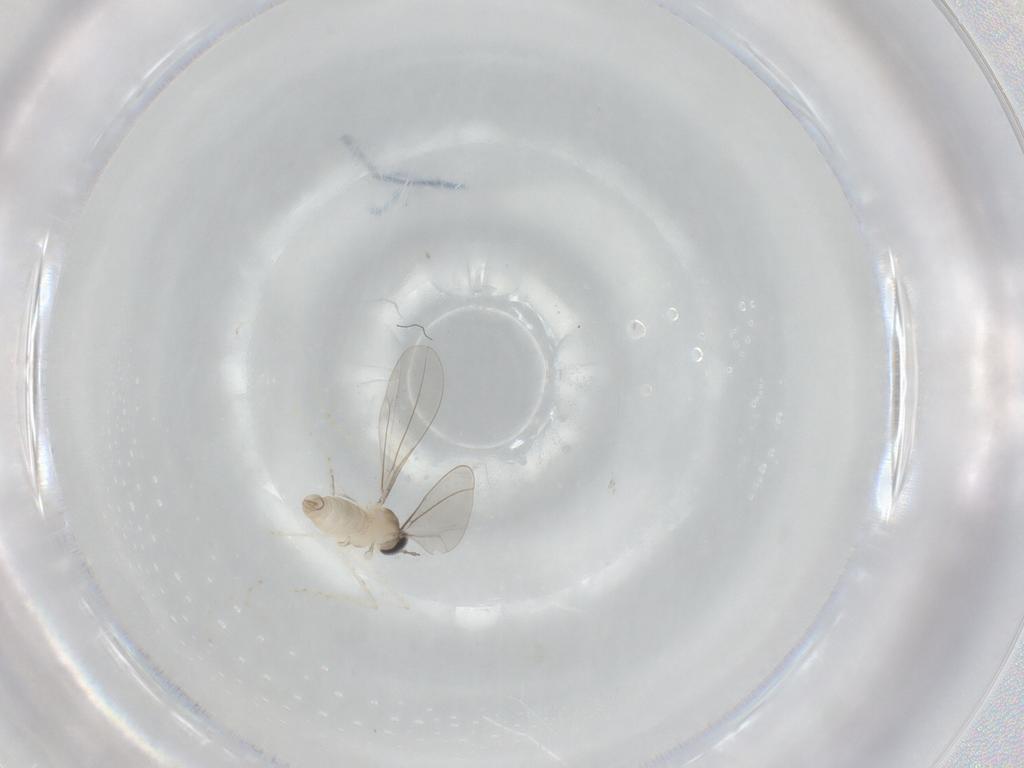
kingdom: Animalia
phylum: Arthropoda
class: Insecta
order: Diptera
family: Cecidomyiidae
